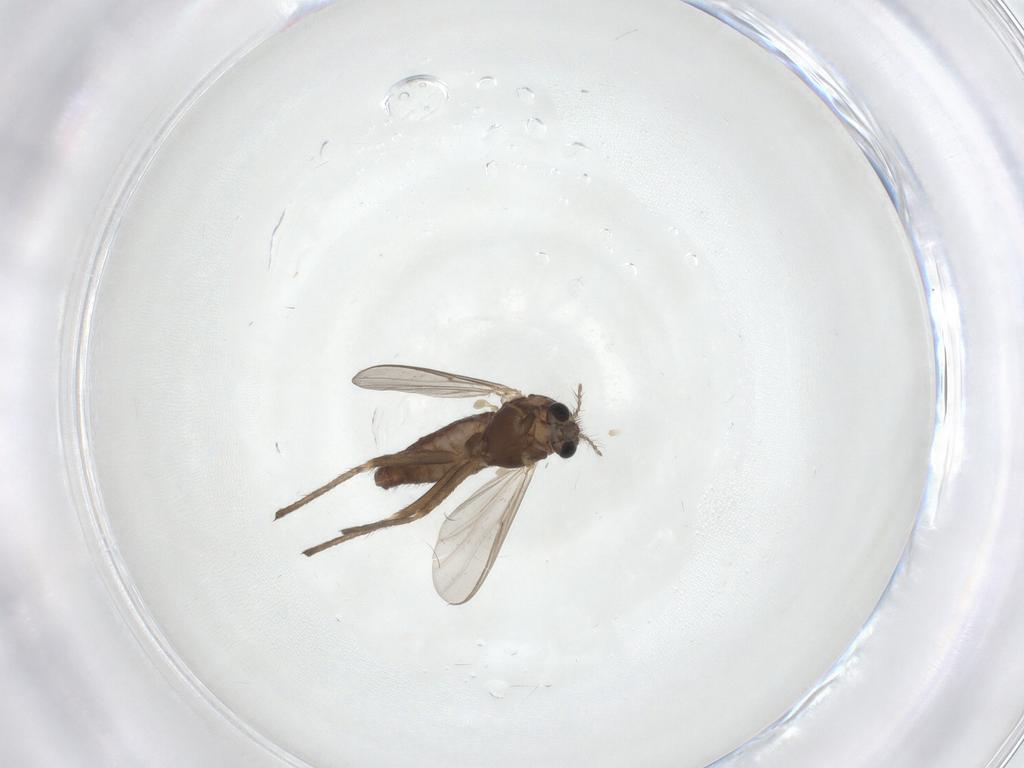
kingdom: Animalia
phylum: Arthropoda
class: Insecta
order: Diptera
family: Chironomidae
